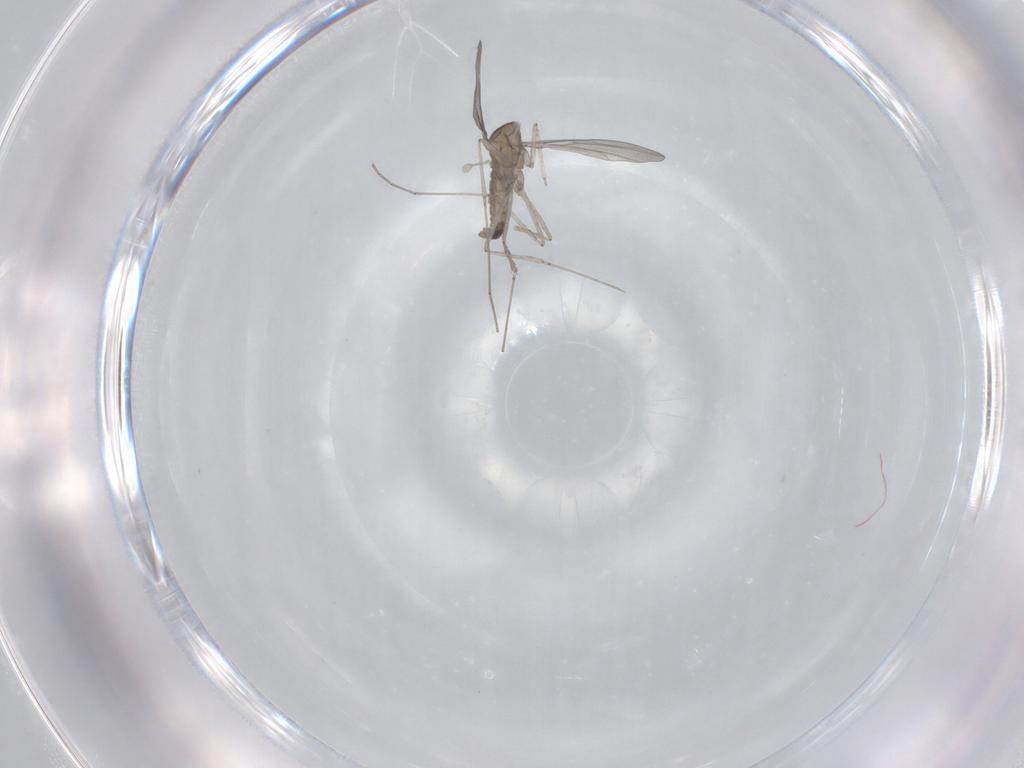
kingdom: Animalia
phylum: Arthropoda
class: Insecta
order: Diptera
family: Cecidomyiidae
